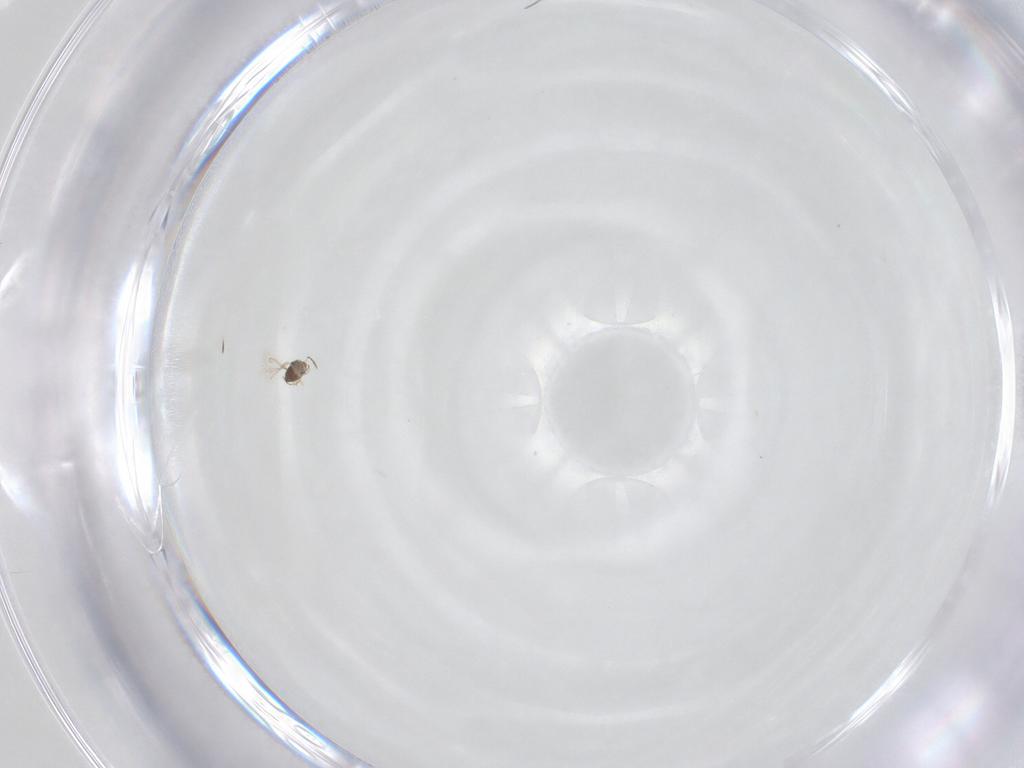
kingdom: Animalia
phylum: Arthropoda
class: Insecta
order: Hymenoptera
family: Mymaridae
